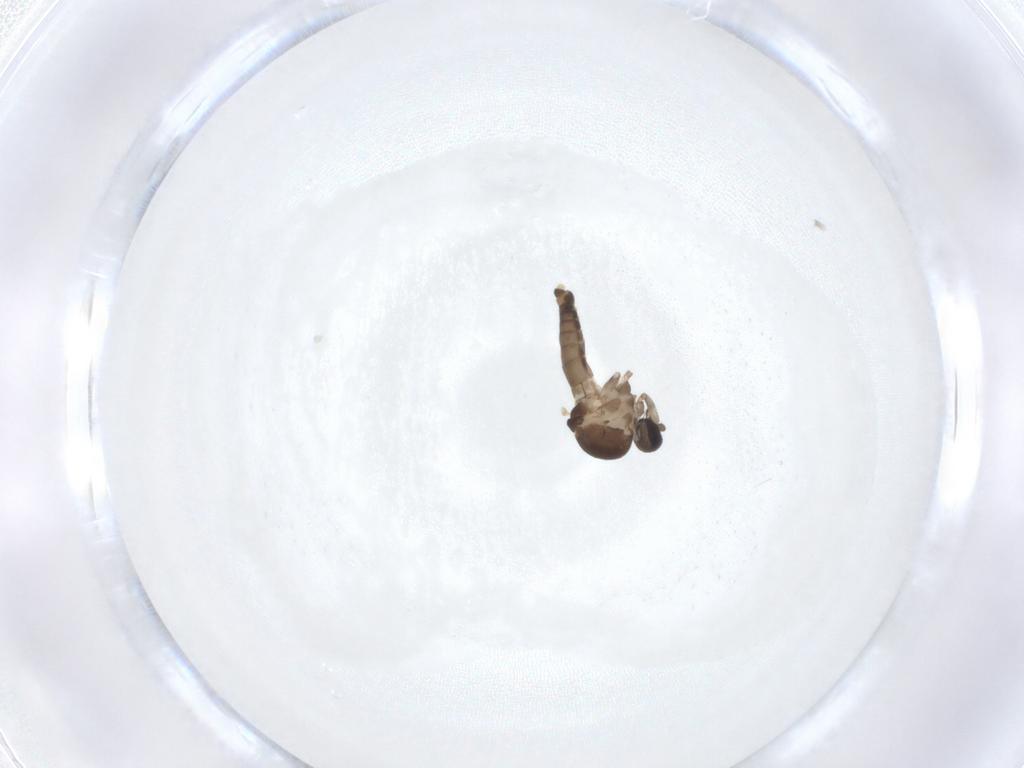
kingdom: Animalia
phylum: Arthropoda
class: Insecta
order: Diptera
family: Ceratopogonidae
